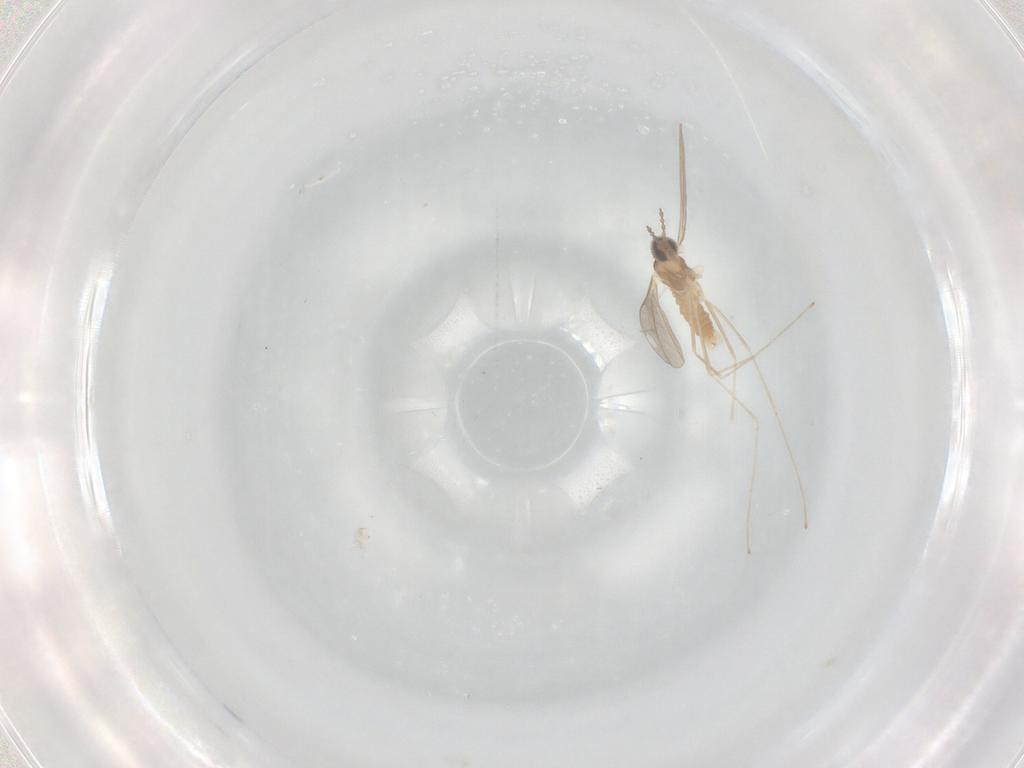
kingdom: Animalia
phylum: Arthropoda
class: Insecta
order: Diptera
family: Cecidomyiidae
